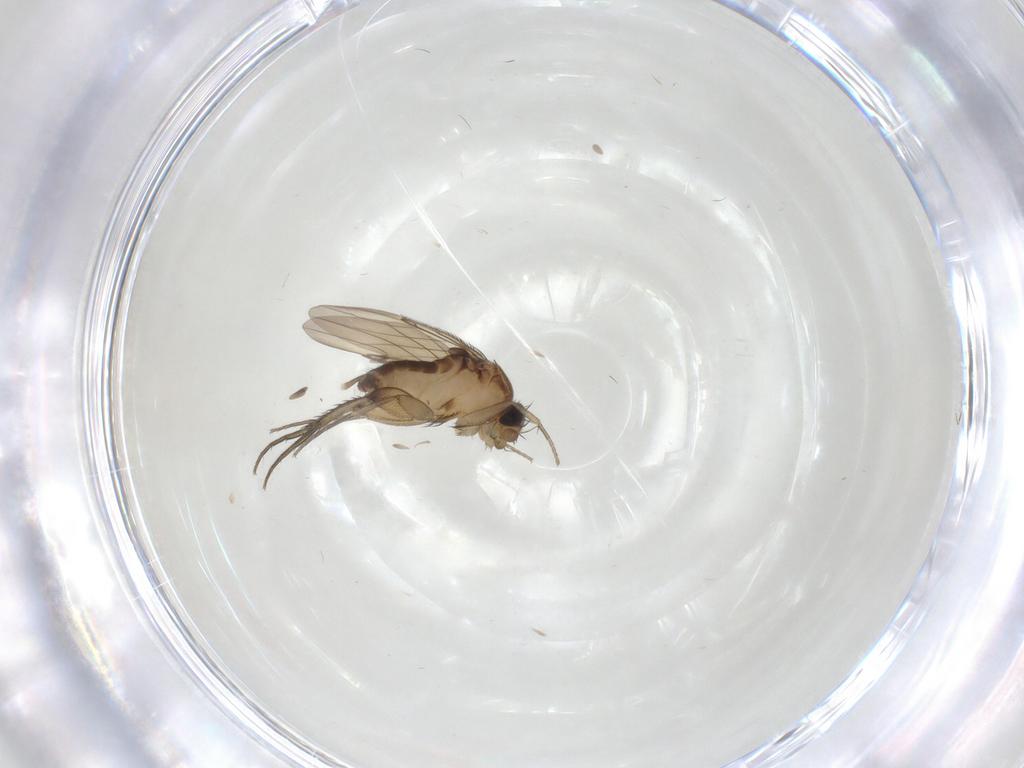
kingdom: Animalia
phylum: Arthropoda
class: Insecta
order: Diptera
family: Phoridae
